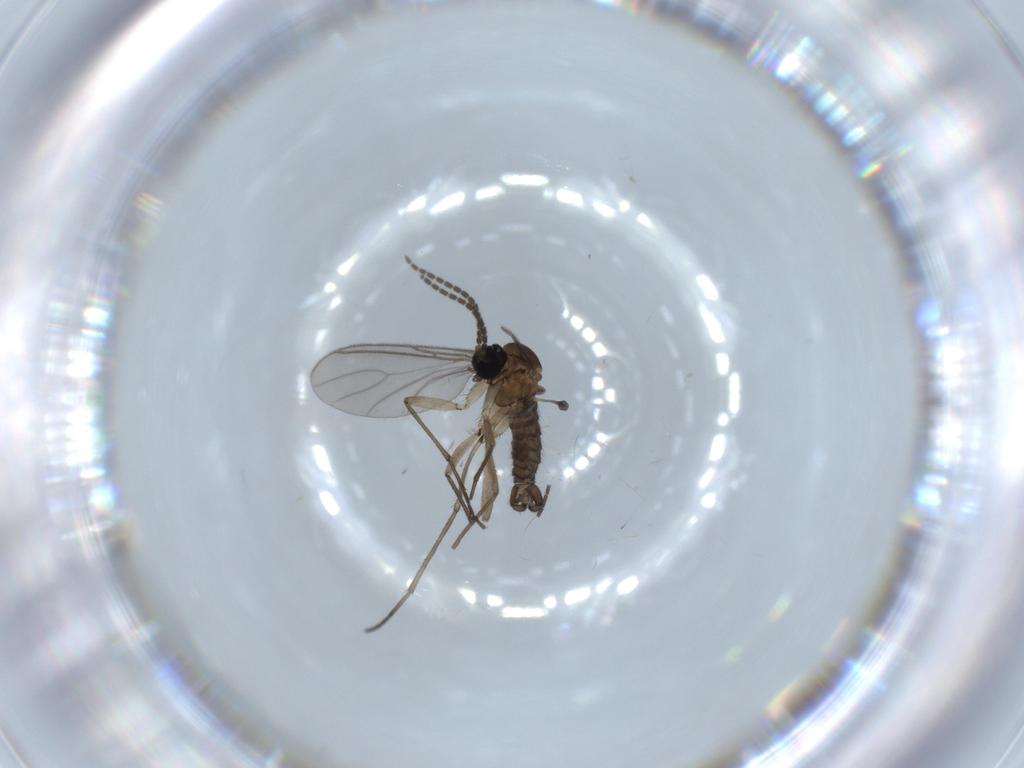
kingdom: Animalia
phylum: Arthropoda
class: Insecta
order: Diptera
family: Sciaridae
